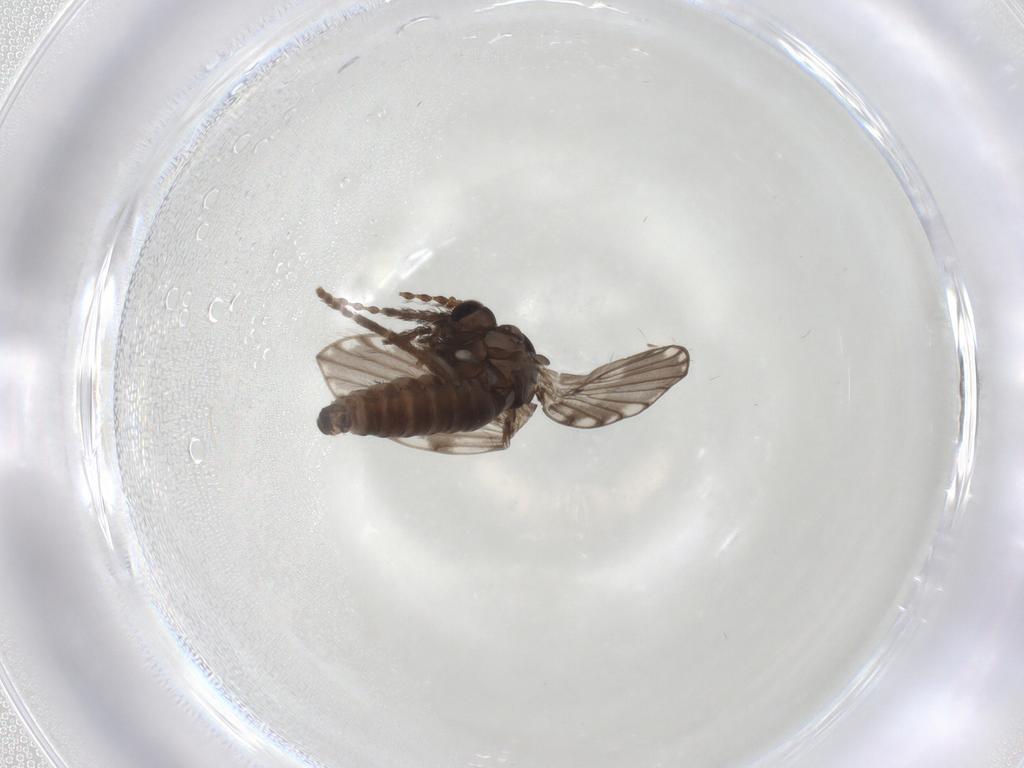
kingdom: Animalia
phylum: Arthropoda
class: Insecta
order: Diptera
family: Psychodidae
